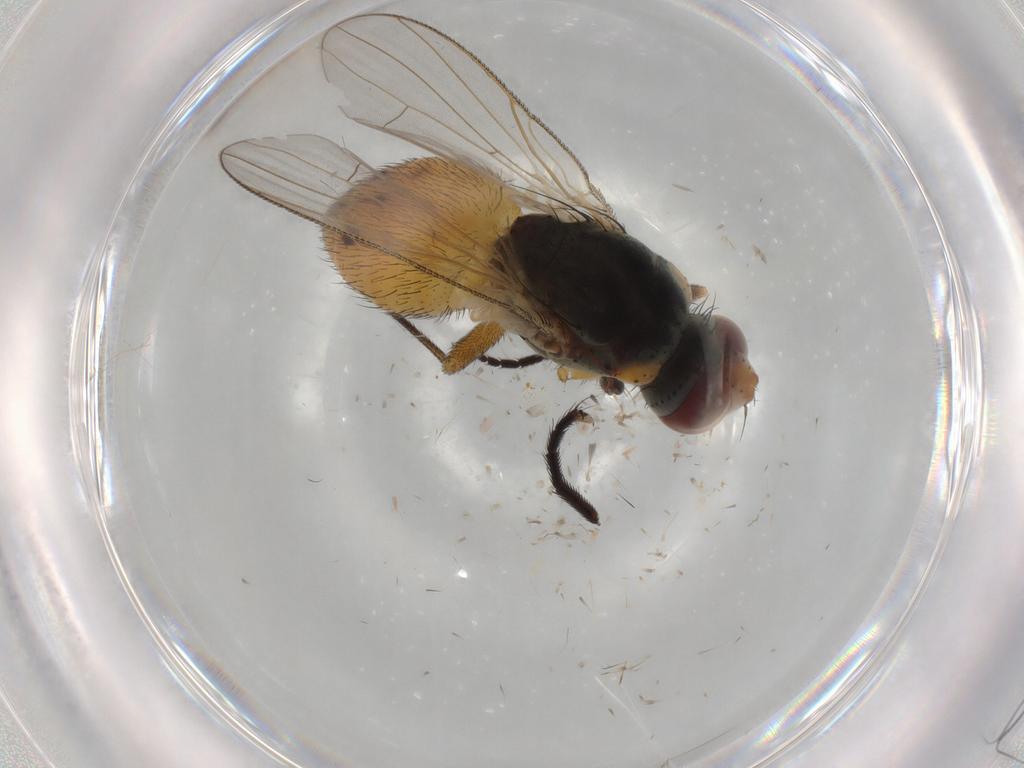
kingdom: Animalia
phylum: Arthropoda
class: Insecta
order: Diptera
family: Muscidae
